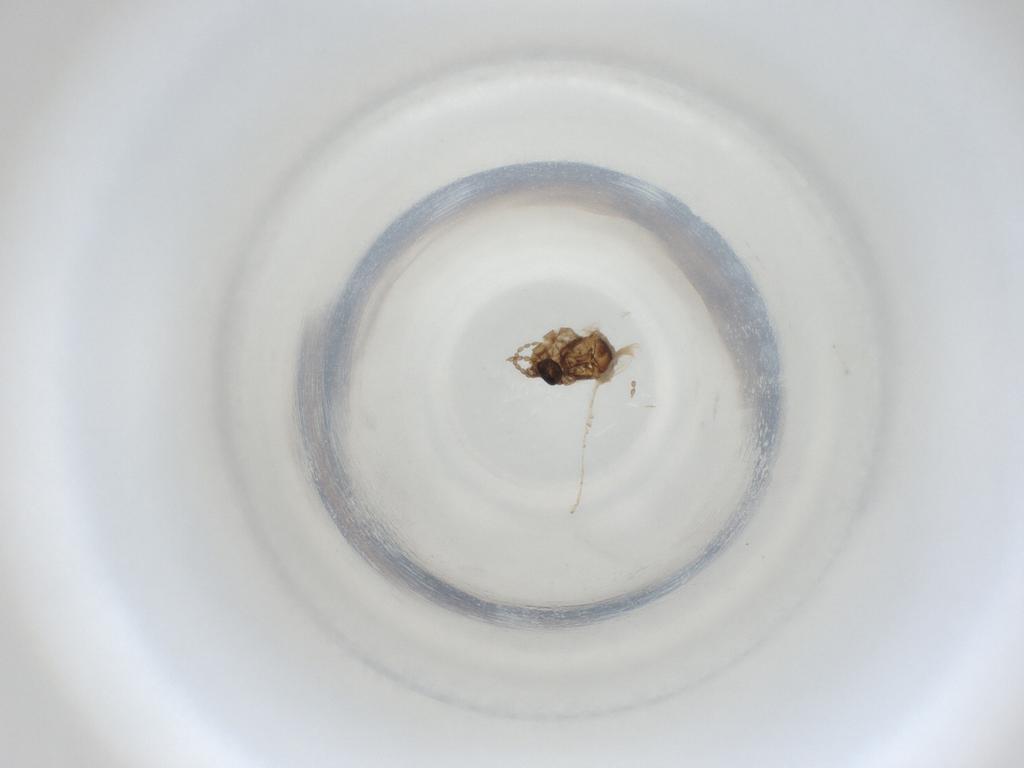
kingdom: Animalia
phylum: Arthropoda
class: Insecta
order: Diptera
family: Cecidomyiidae
